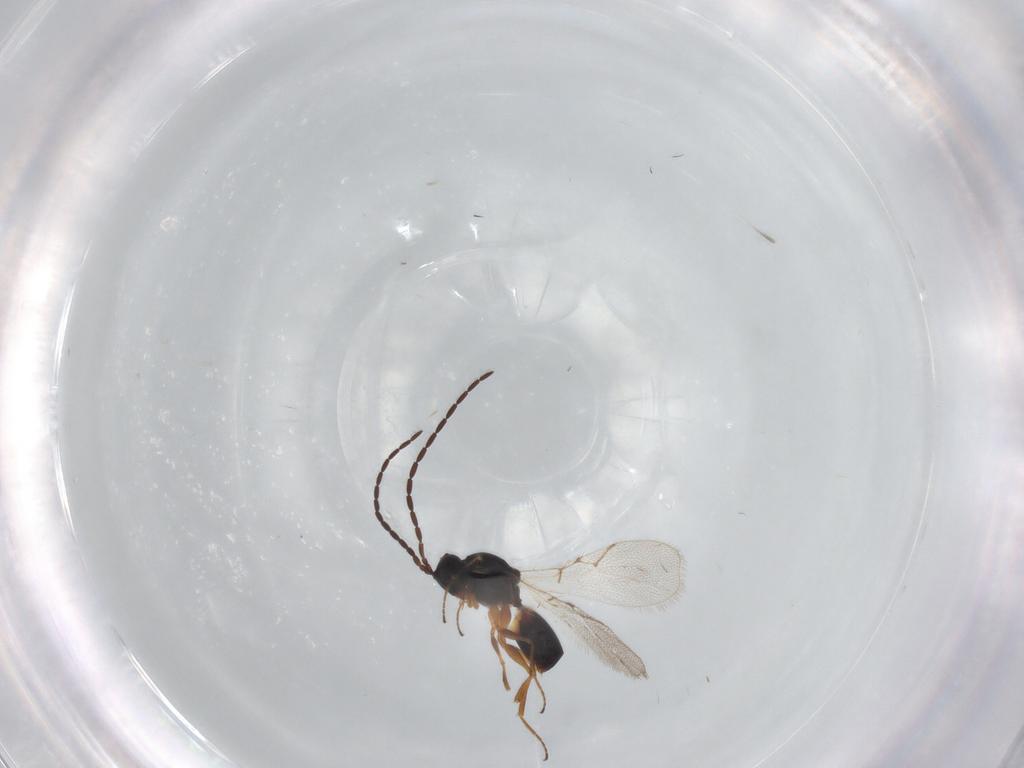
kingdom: Animalia
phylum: Arthropoda
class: Insecta
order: Hymenoptera
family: Figitidae
